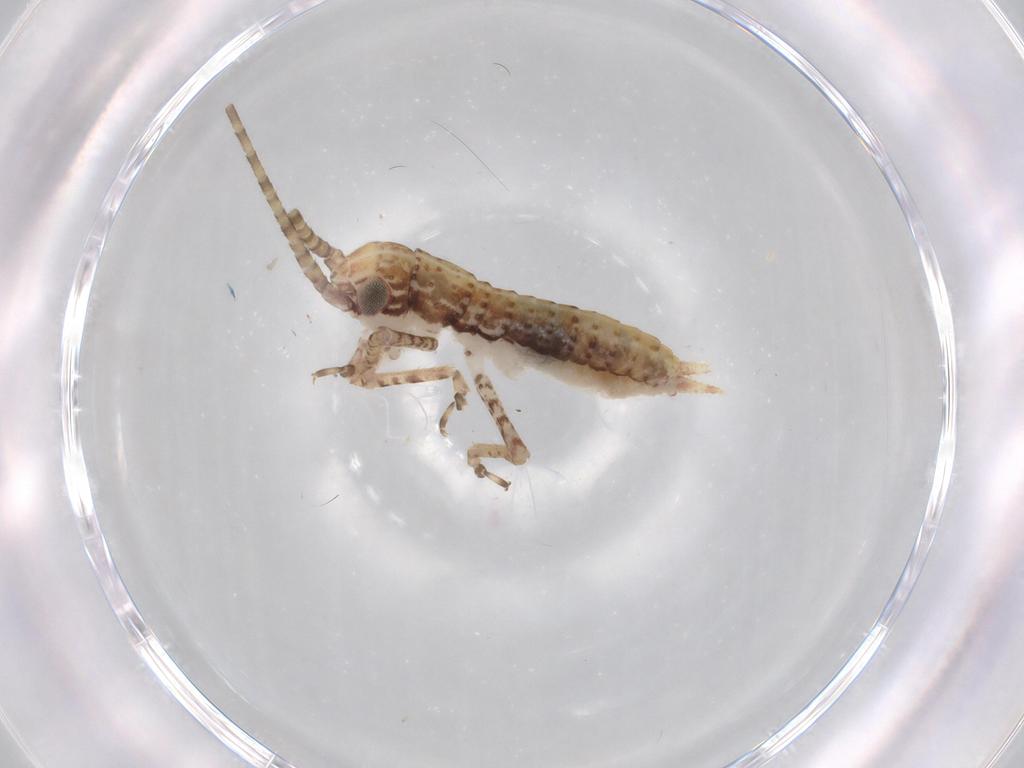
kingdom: Animalia
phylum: Arthropoda
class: Insecta
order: Orthoptera
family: Gryllidae
